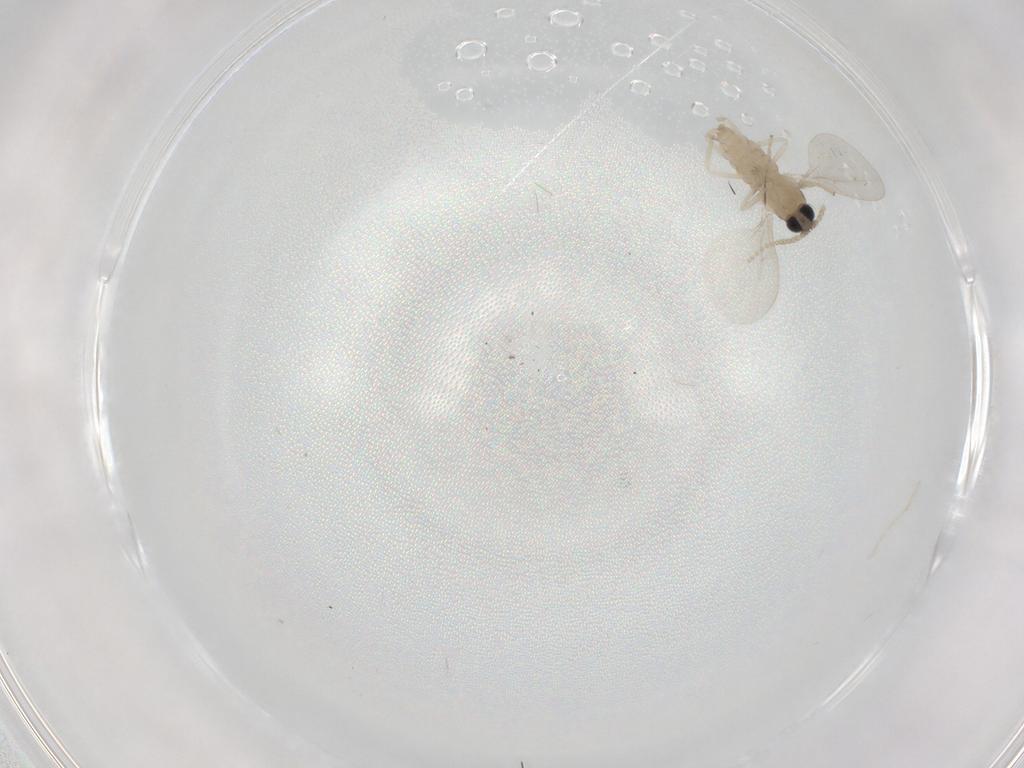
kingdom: Animalia
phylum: Arthropoda
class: Insecta
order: Diptera
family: Cecidomyiidae
